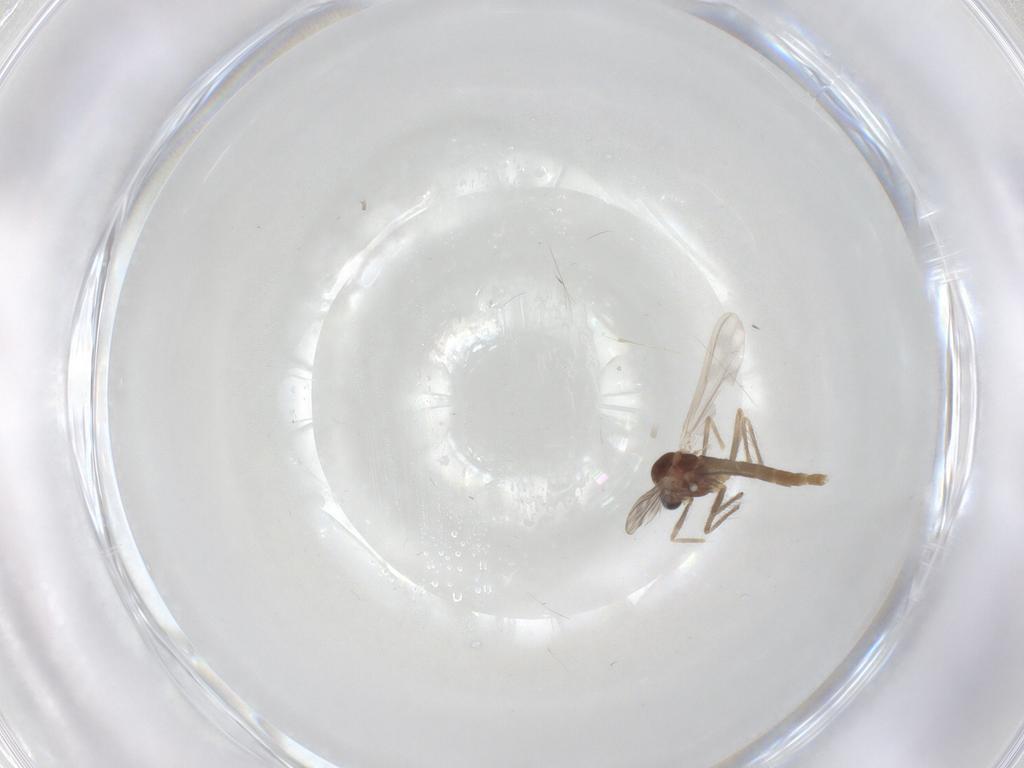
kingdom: Animalia
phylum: Arthropoda
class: Insecta
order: Diptera
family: Chironomidae
